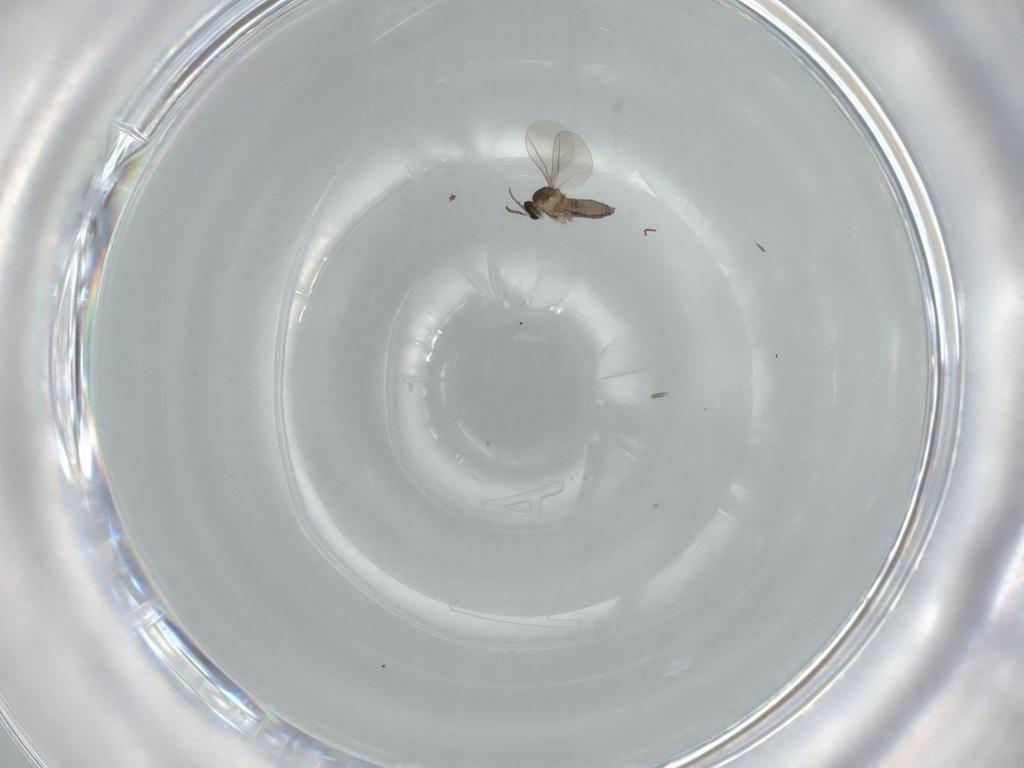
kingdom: Animalia
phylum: Arthropoda
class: Insecta
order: Diptera
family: Cecidomyiidae
